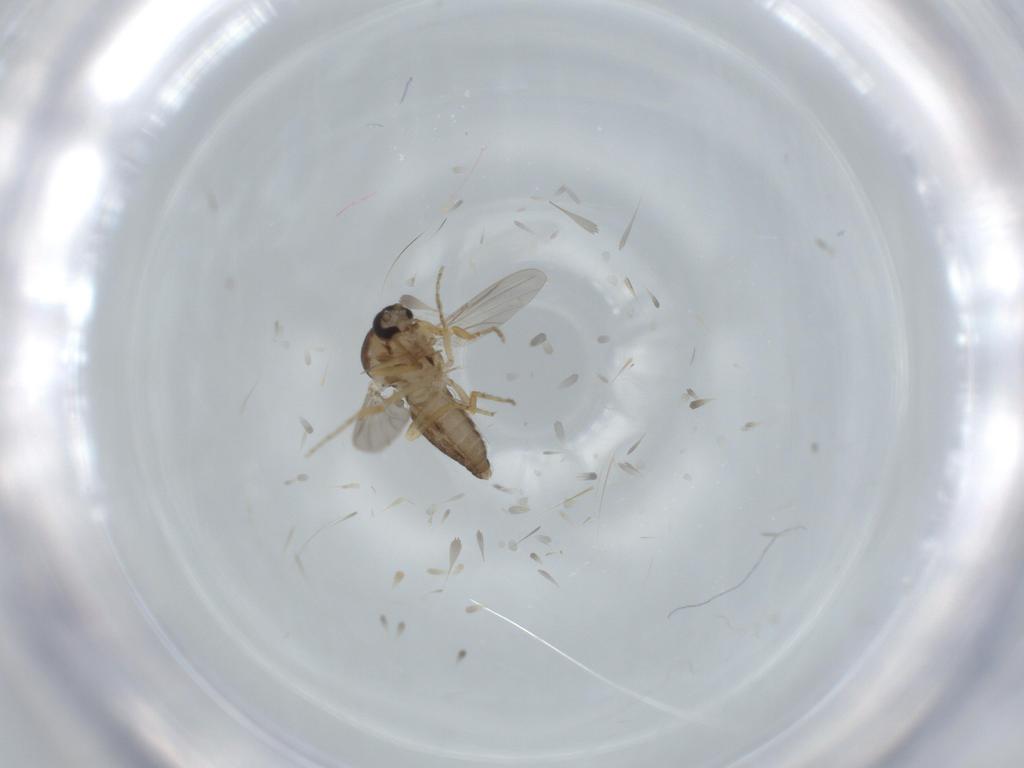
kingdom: Animalia
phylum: Arthropoda
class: Insecta
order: Diptera
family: Ceratopogonidae
